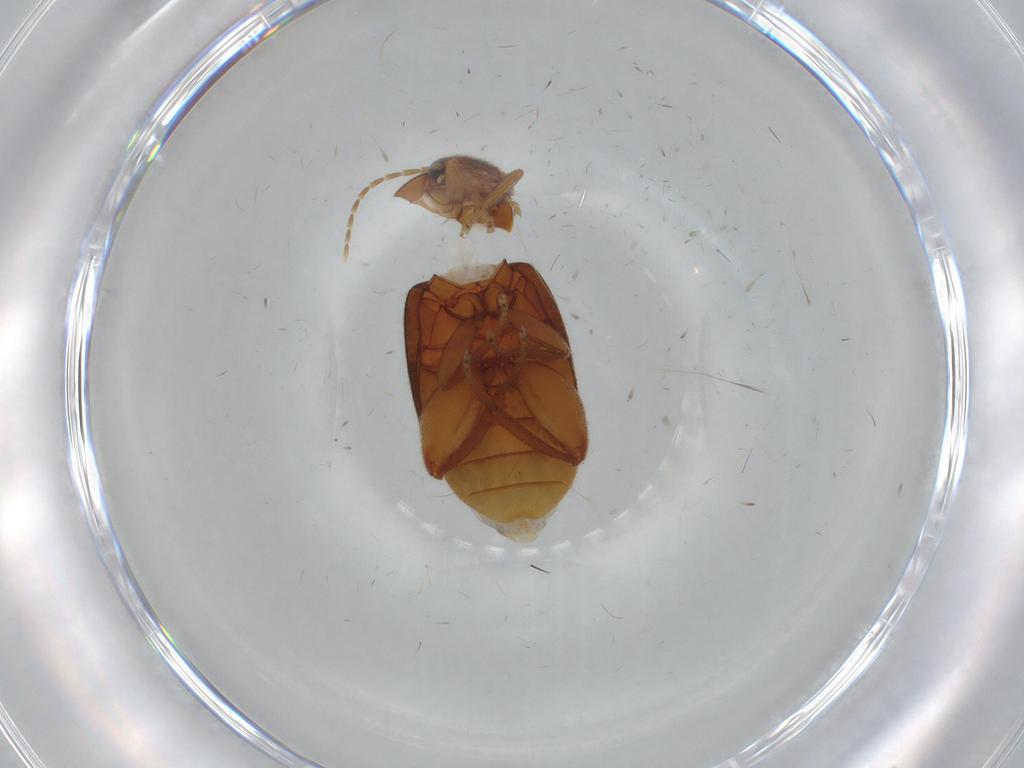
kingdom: Animalia
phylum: Arthropoda
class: Insecta
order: Coleoptera
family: Scirtidae
